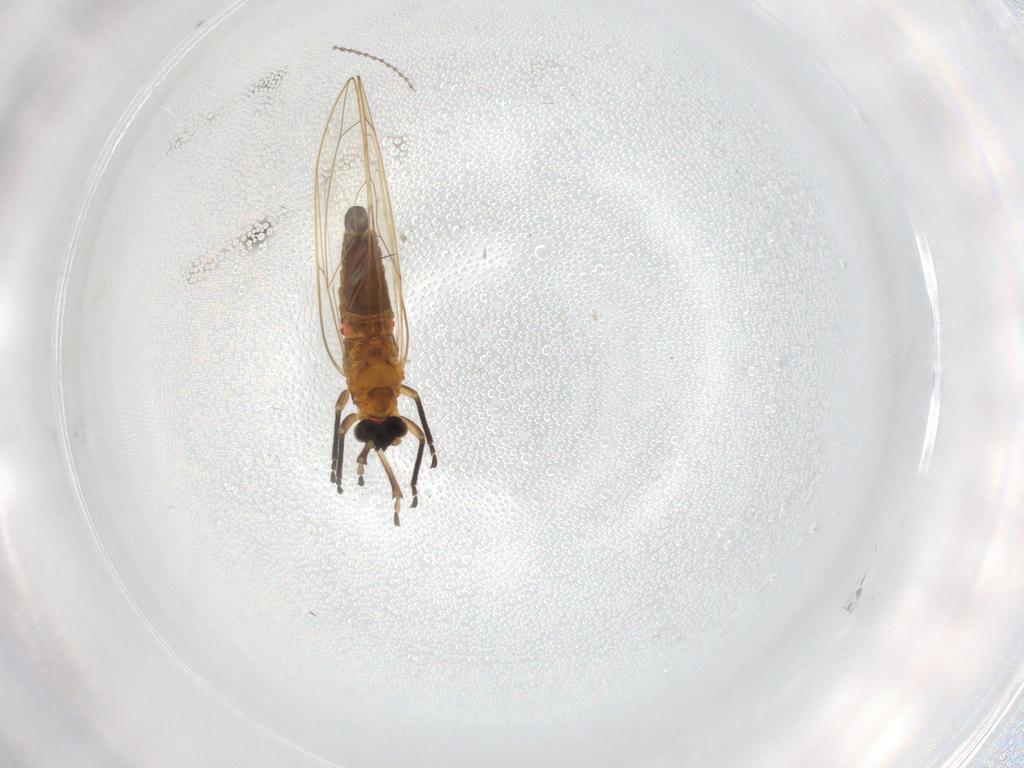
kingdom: Animalia
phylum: Arthropoda
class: Insecta
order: Diptera
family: Cecidomyiidae
